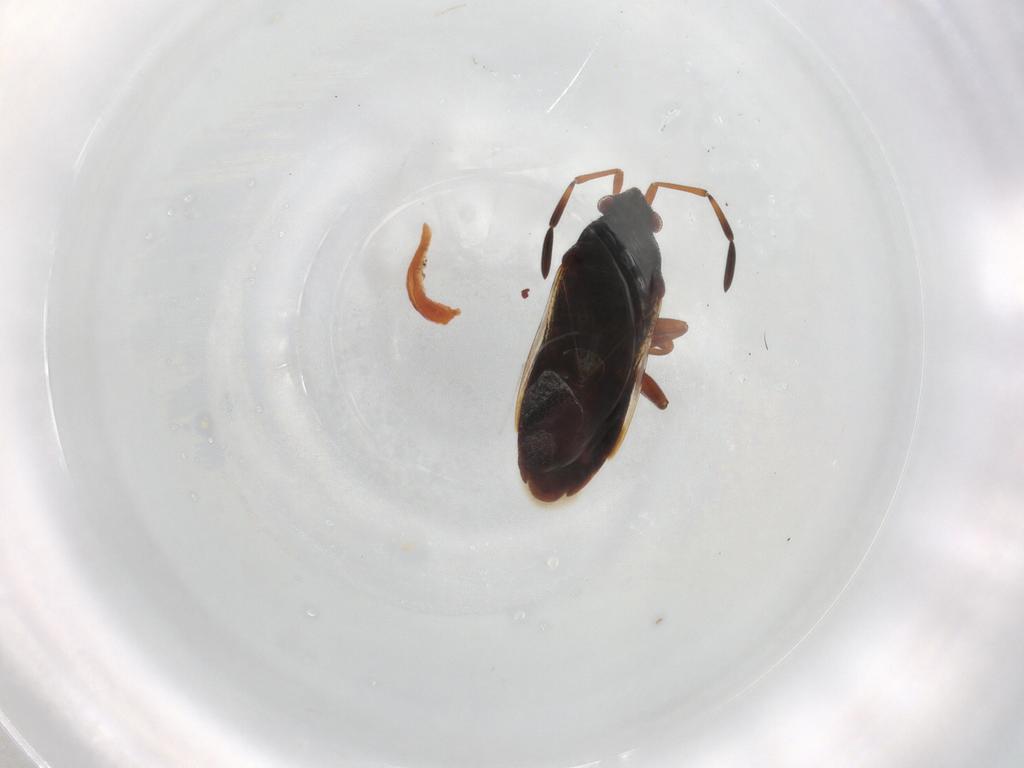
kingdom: Animalia
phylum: Arthropoda
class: Insecta
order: Hemiptera
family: Rhyparochromidae
